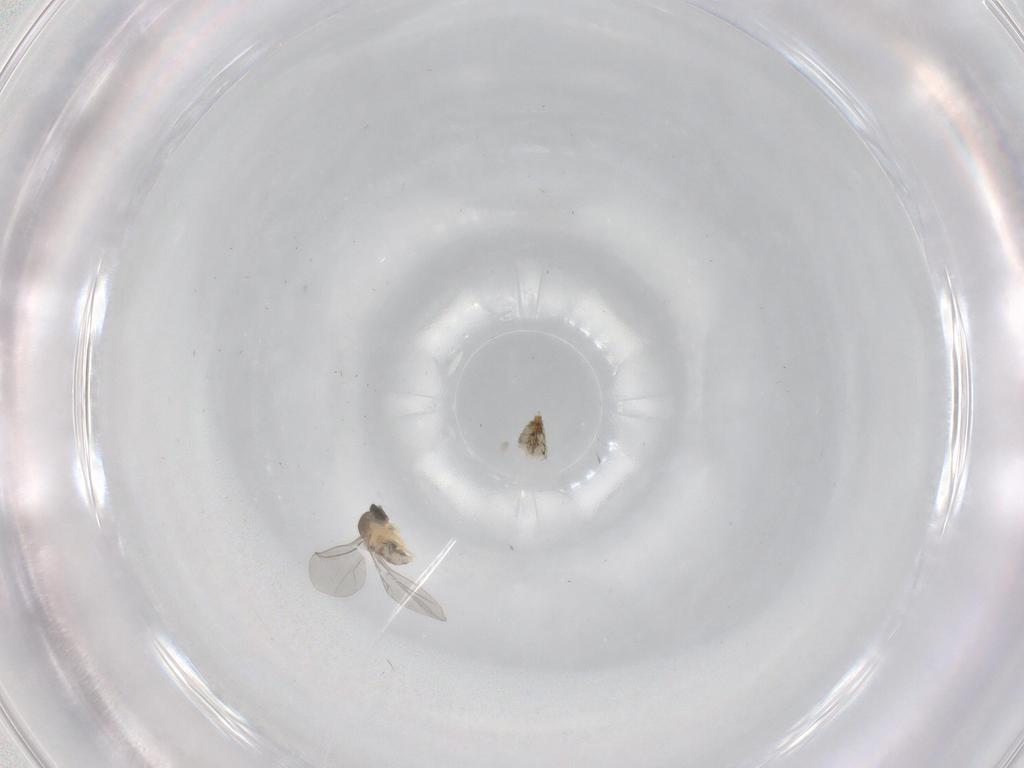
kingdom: Animalia
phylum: Arthropoda
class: Insecta
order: Diptera
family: Cecidomyiidae
